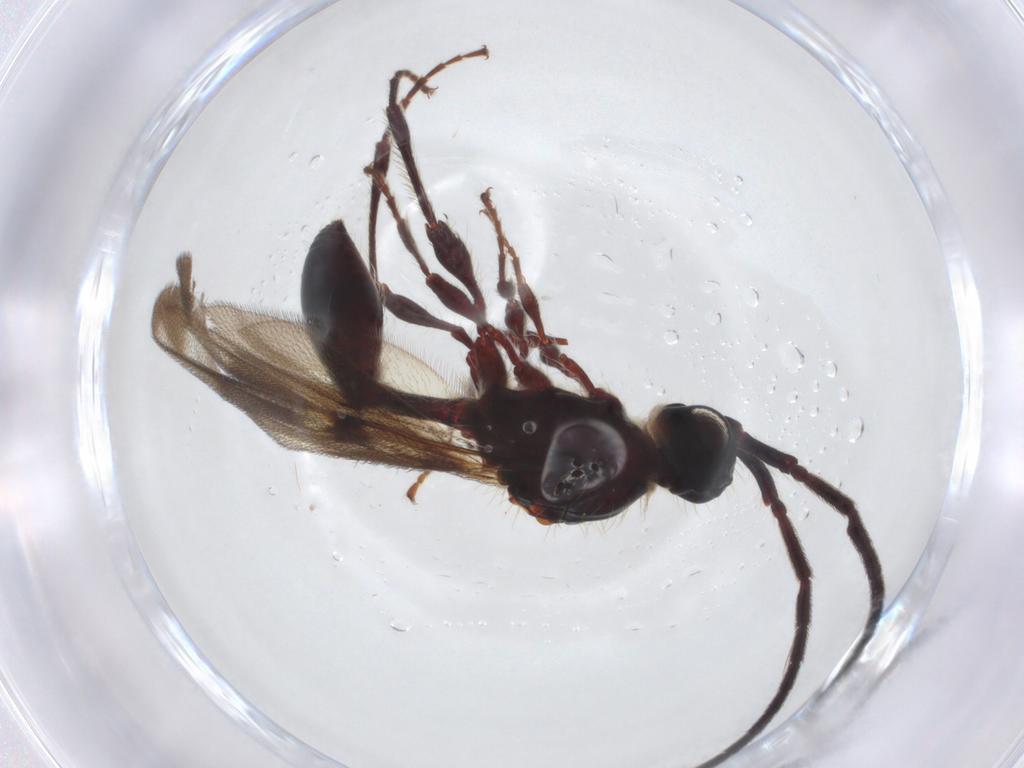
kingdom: Animalia
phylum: Arthropoda
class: Insecta
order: Hymenoptera
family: Diapriidae
